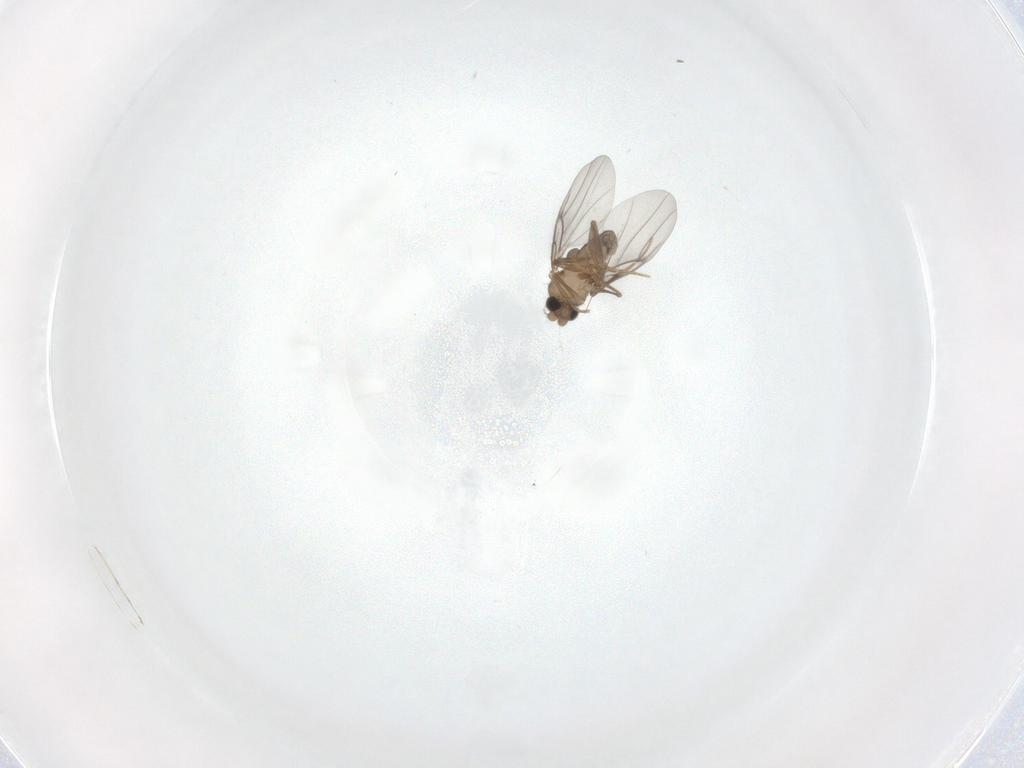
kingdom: Animalia
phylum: Arthropoda
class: Insecta
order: Diptera
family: Chironomidae
